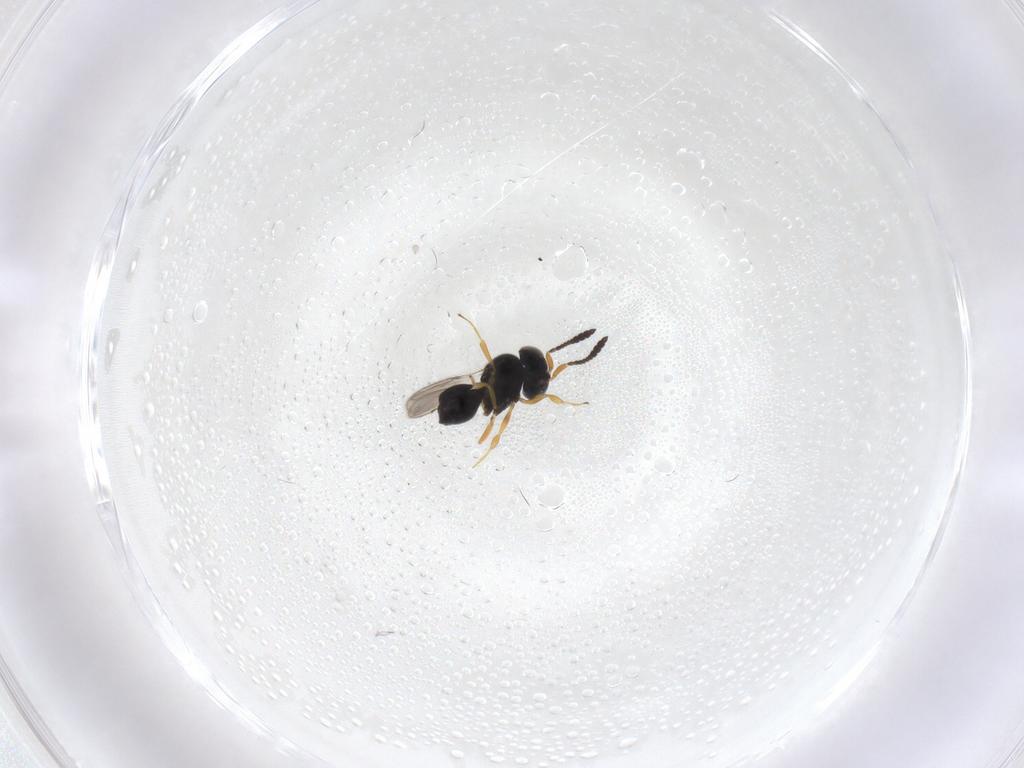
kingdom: Animalia
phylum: Arthropoda
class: Insecta
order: Hymenoptera
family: Scelionidae
